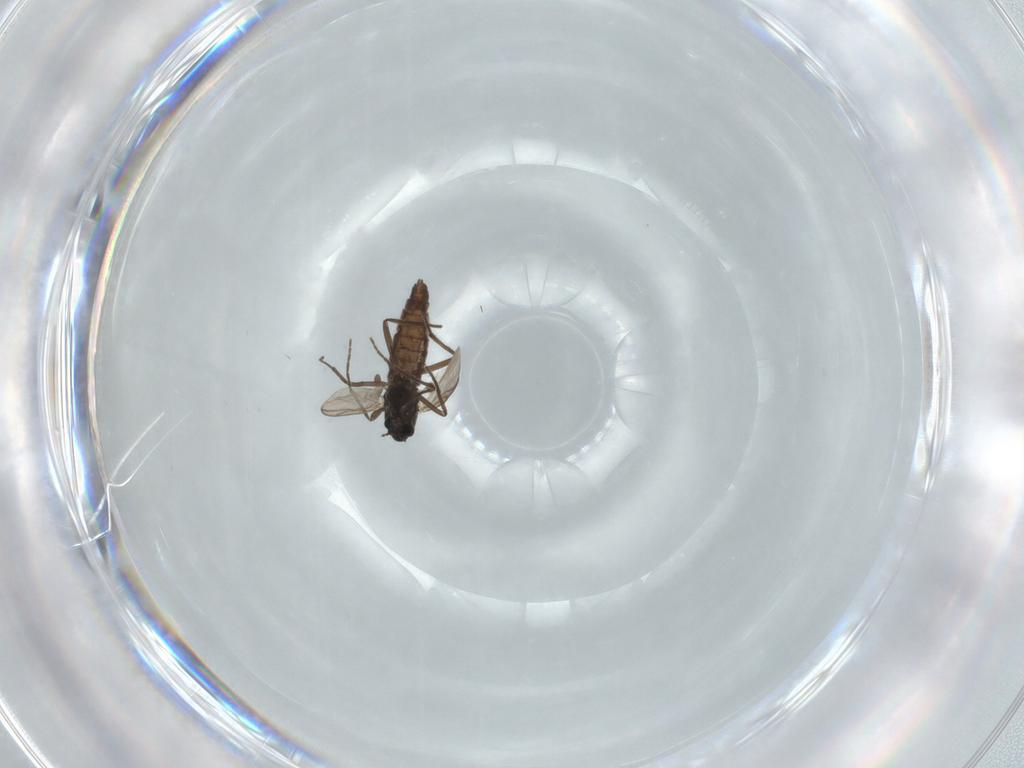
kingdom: Animalia
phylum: Arthropoda
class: Insecta
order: Diptera
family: Chironomidae
